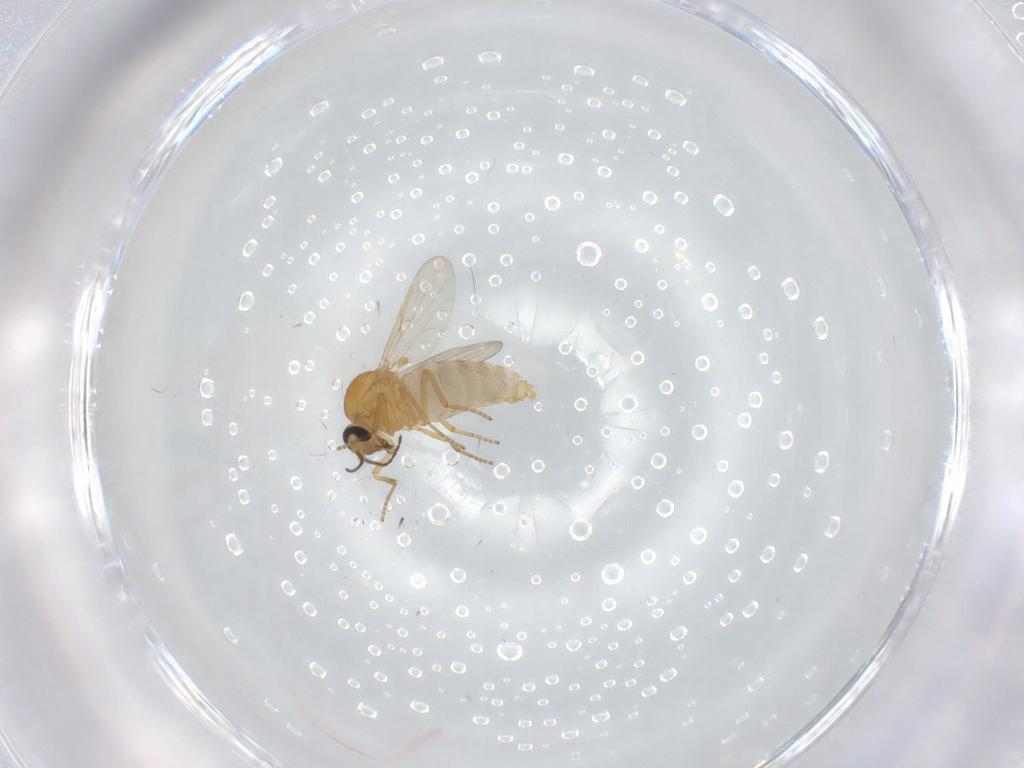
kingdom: Animalia
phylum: Arthropoda
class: Insecta
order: Diptera
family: Ceratopogonidae
